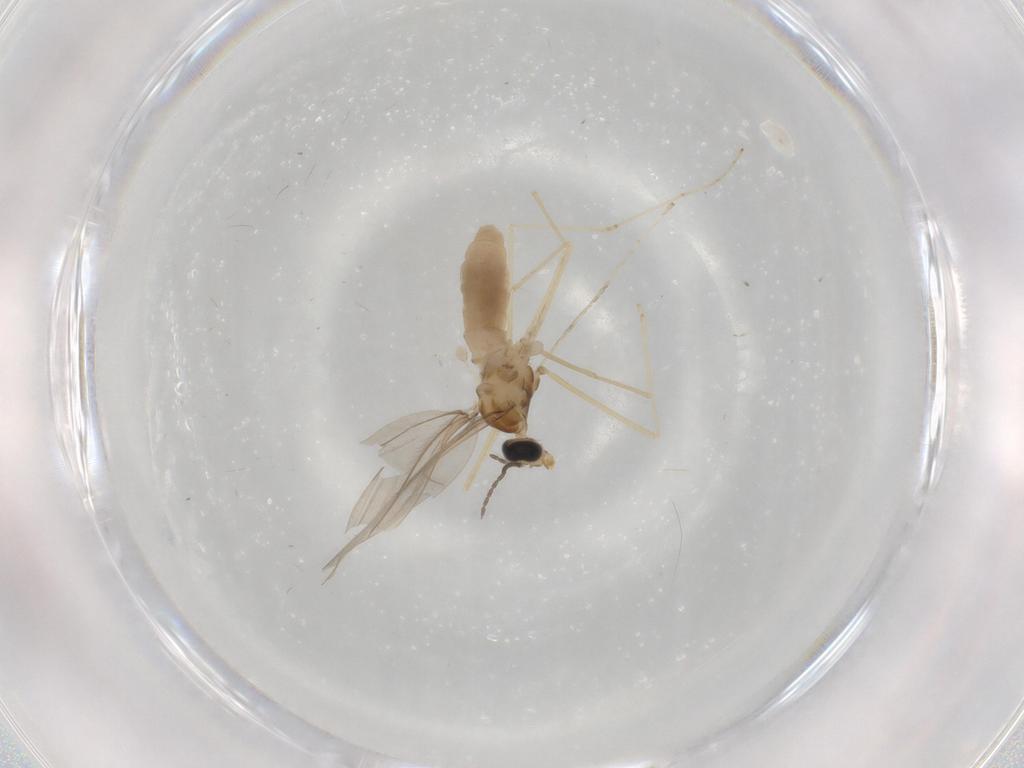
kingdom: Animalia
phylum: Arthropoda
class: Insecta
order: Diptera
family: Cecidomyiidae
